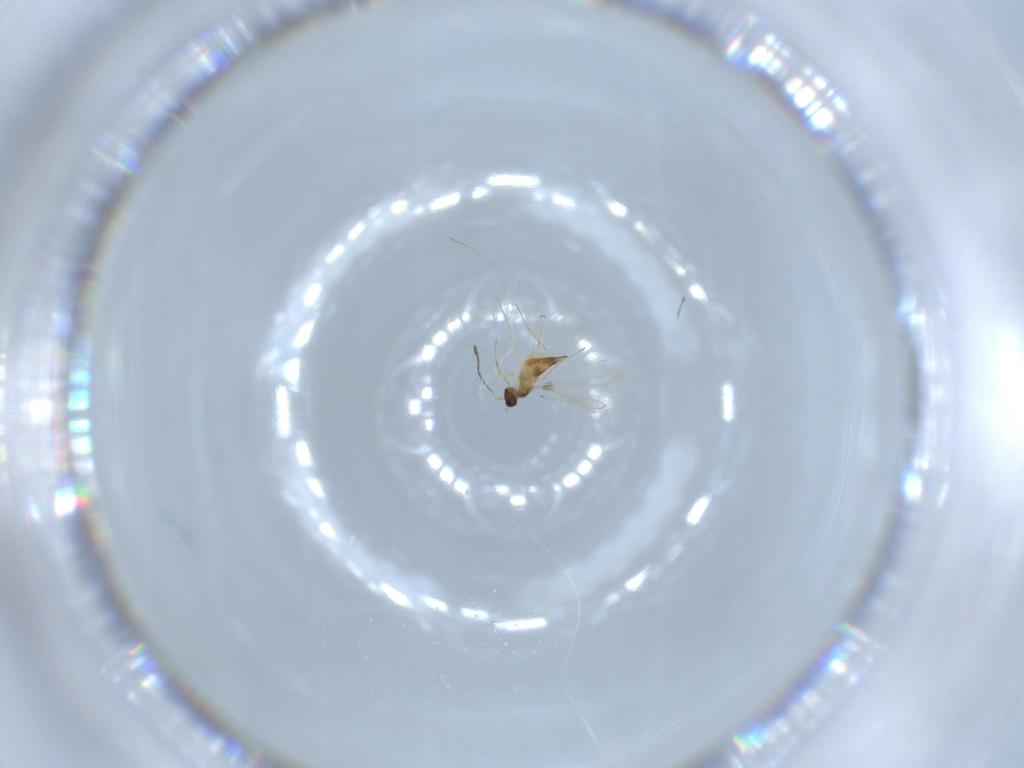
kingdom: Animalia
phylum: Arthropoda
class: Insecta
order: Hymenoptera
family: Mymaridae
